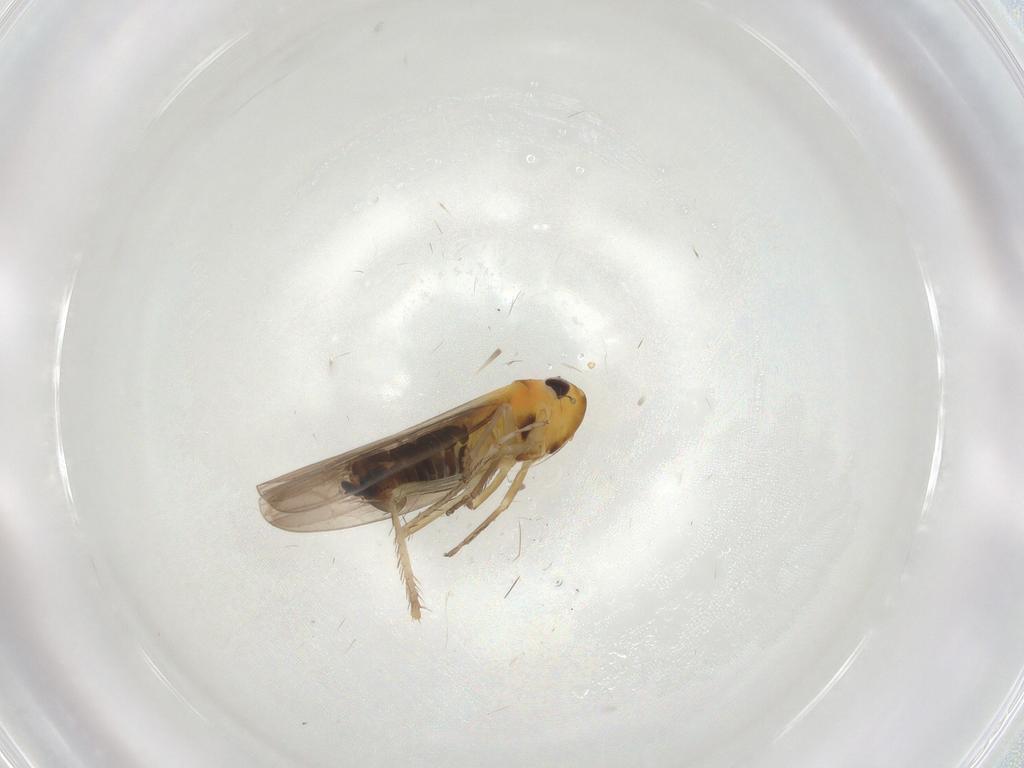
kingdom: Animalia
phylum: Arthropoda
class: Insecta
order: Hemiptera
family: Cicadellidae
